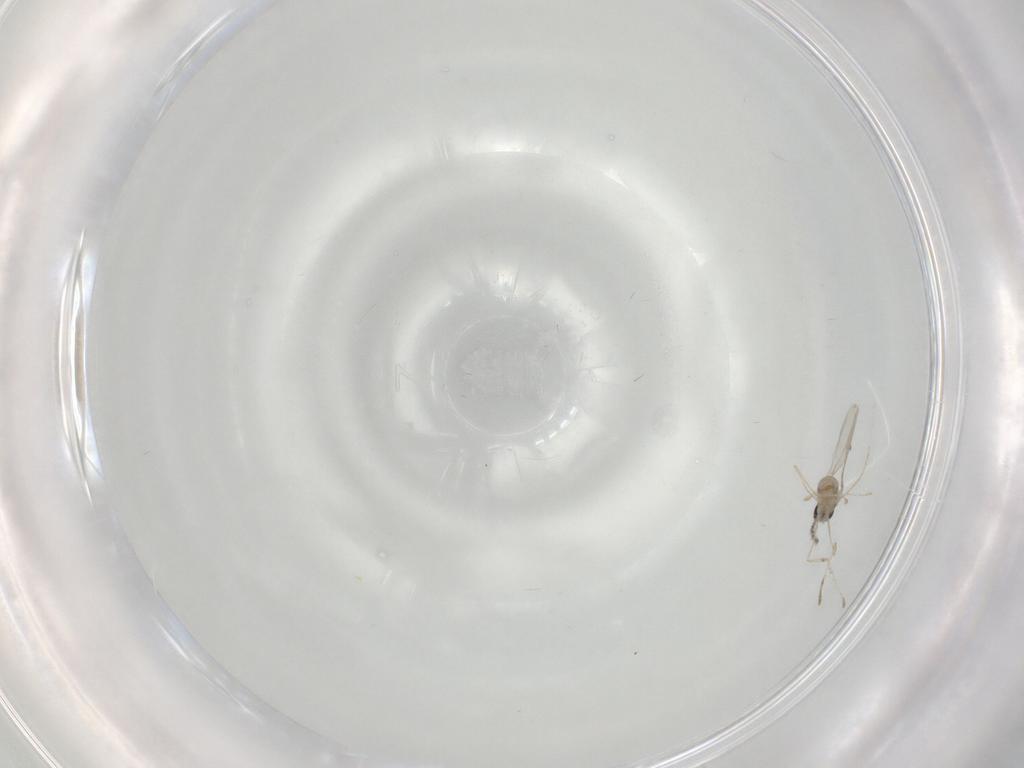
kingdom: Animalia
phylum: Arthropoda
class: Insecta
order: Diptera
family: Cecidomyiidae
